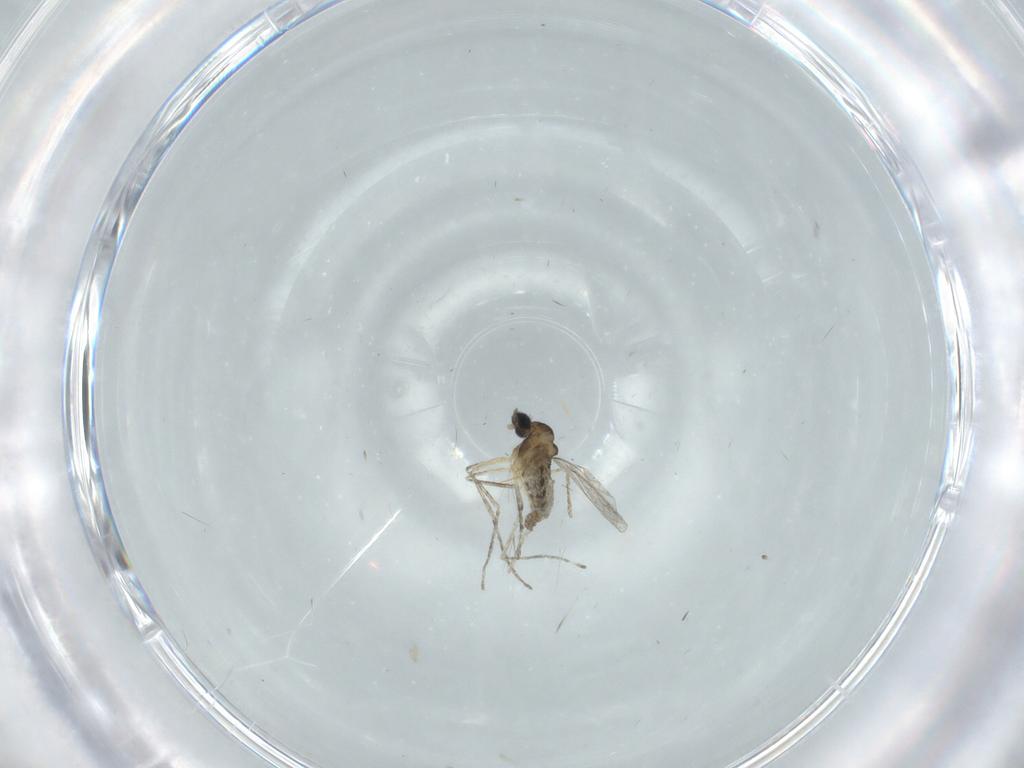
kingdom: Animalia
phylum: Arthropoda
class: Insecta
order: Diptera
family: Cecidomyiidae
